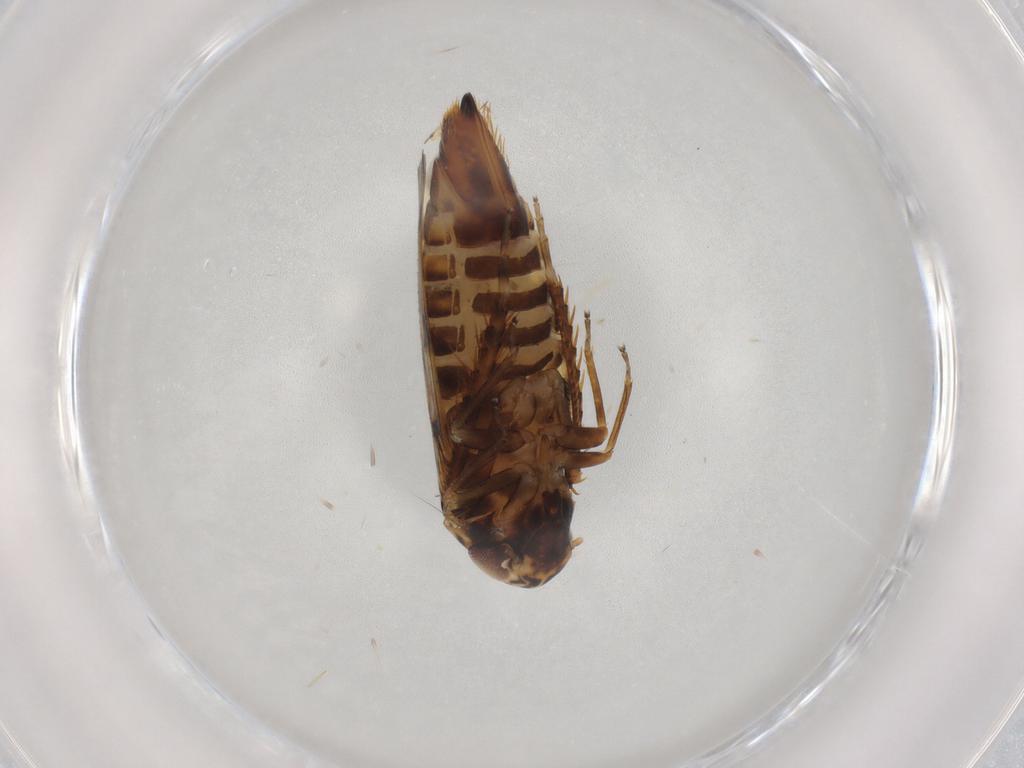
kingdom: Animalia
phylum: Arthropoda
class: Insecta
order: Hemiptera
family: Cicadellidae
